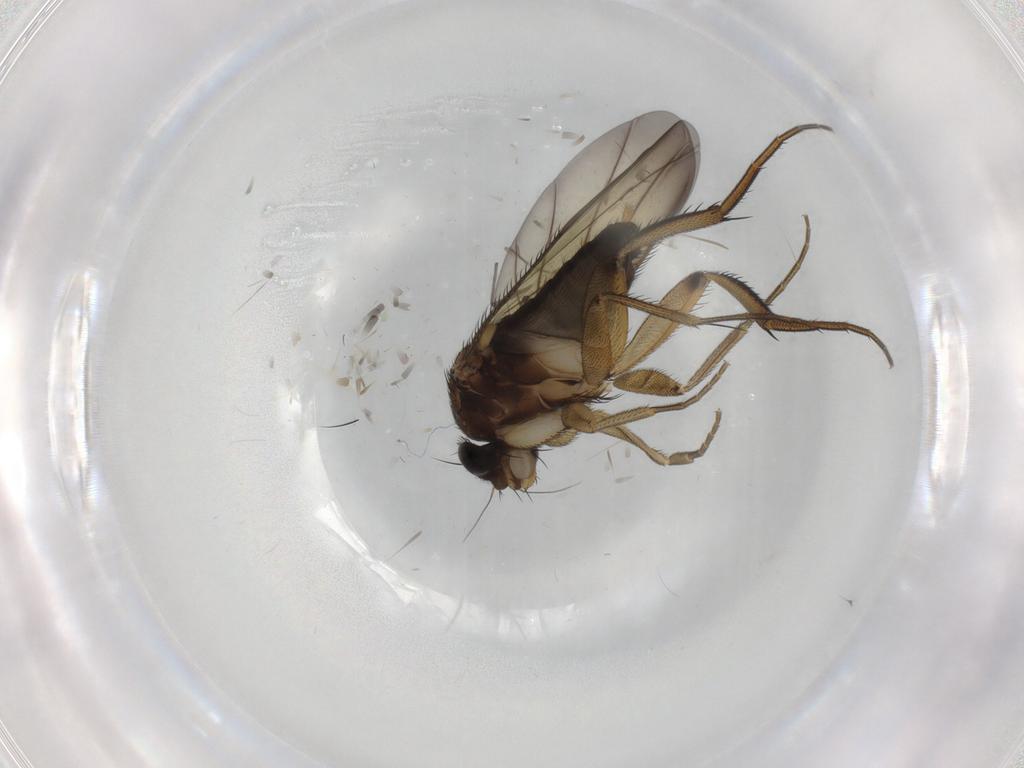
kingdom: Animalia
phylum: Arthropoda
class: Insecta
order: Diptera
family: Phoridae
